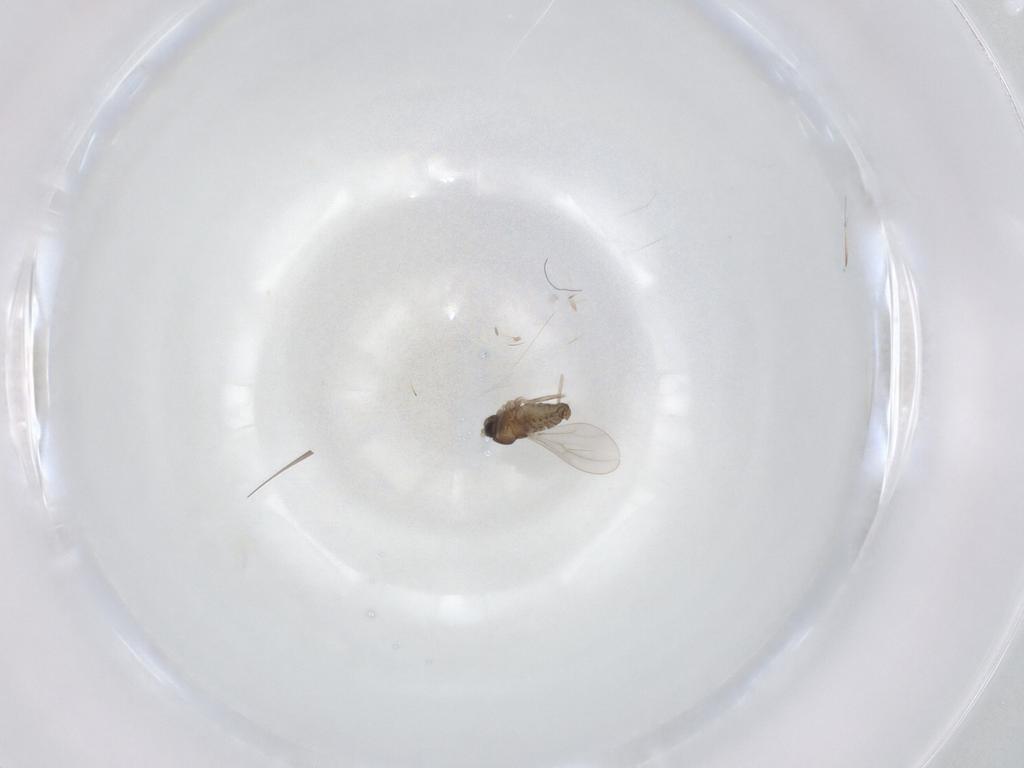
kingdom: Animalia
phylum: Arthropoda
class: Insecta
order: Diptera
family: Cecidomyiidae
